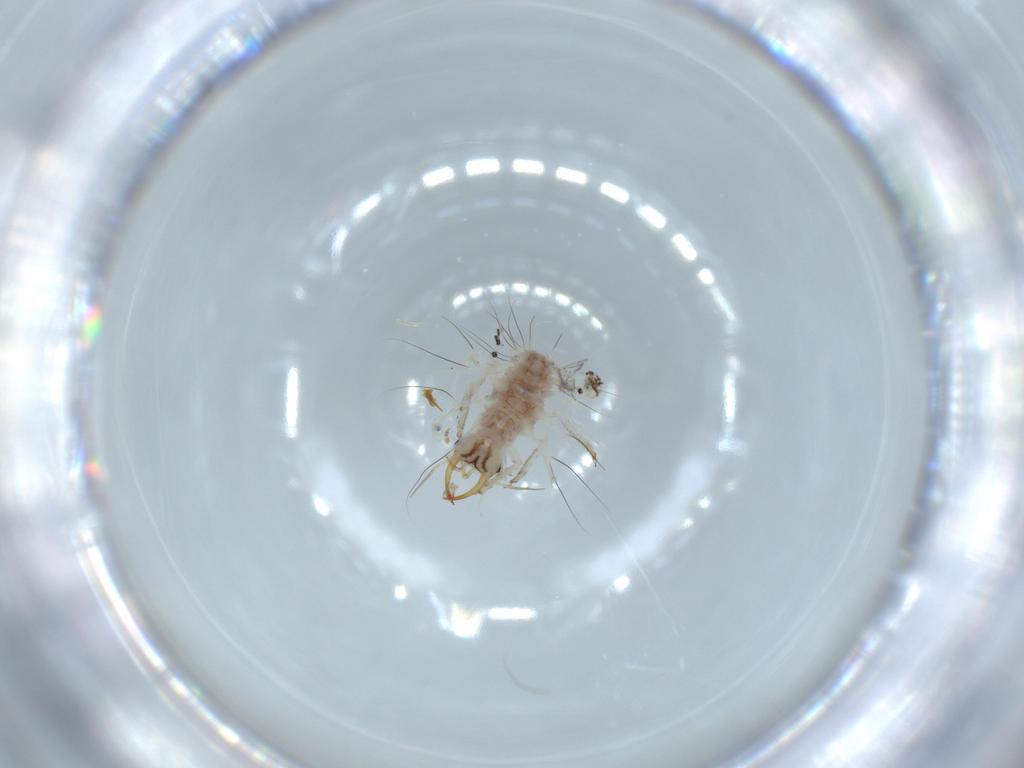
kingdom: Animalia
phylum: Arthropoda
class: Insecta
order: Neuroptera
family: Chrysopidae
